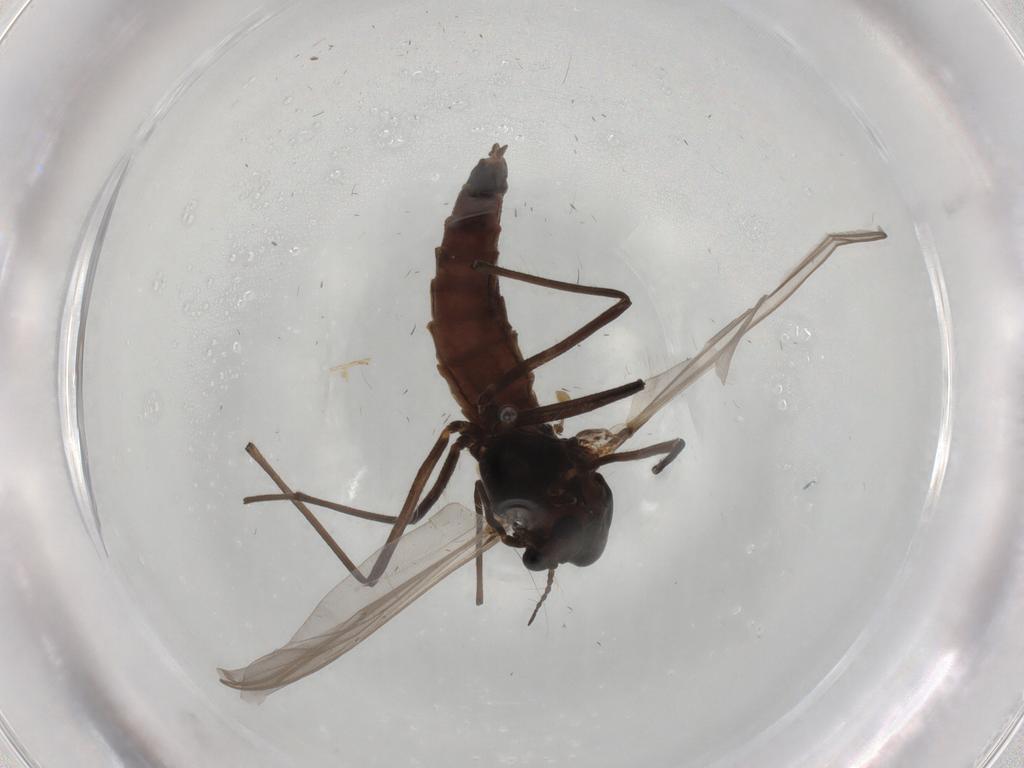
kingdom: Animalia
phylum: Arthropoda
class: Insecta
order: Diptera
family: Chironomidae
